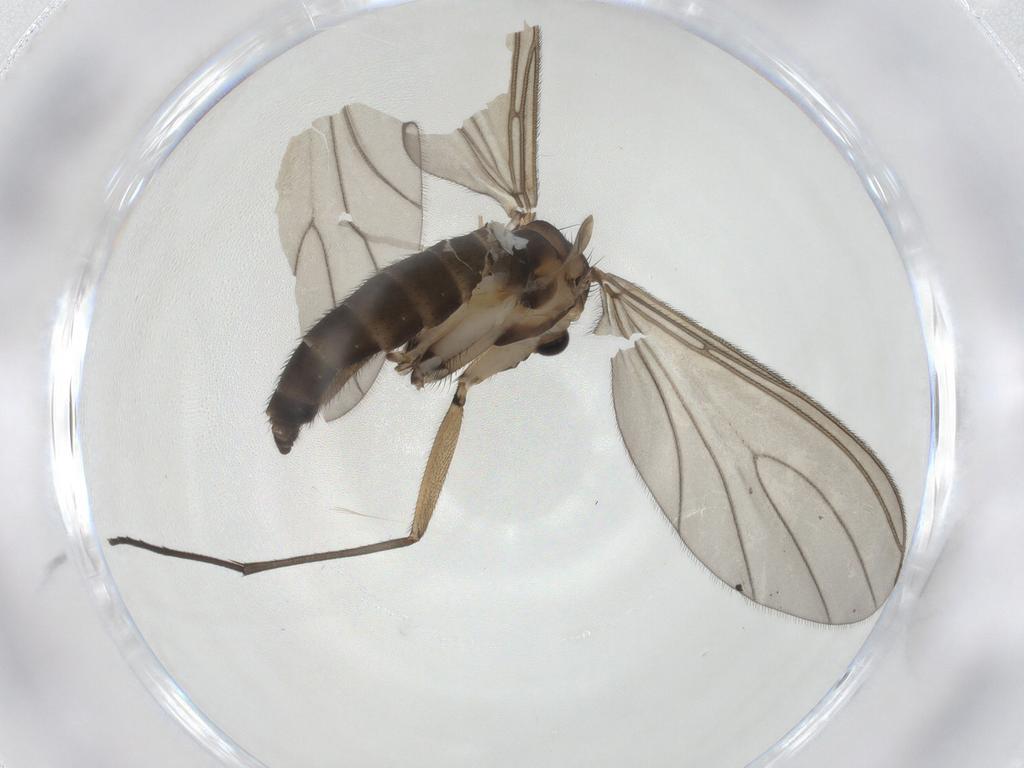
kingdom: Animalia
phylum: Arthropoda
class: Insecta
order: Diptera
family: Sciaridae
